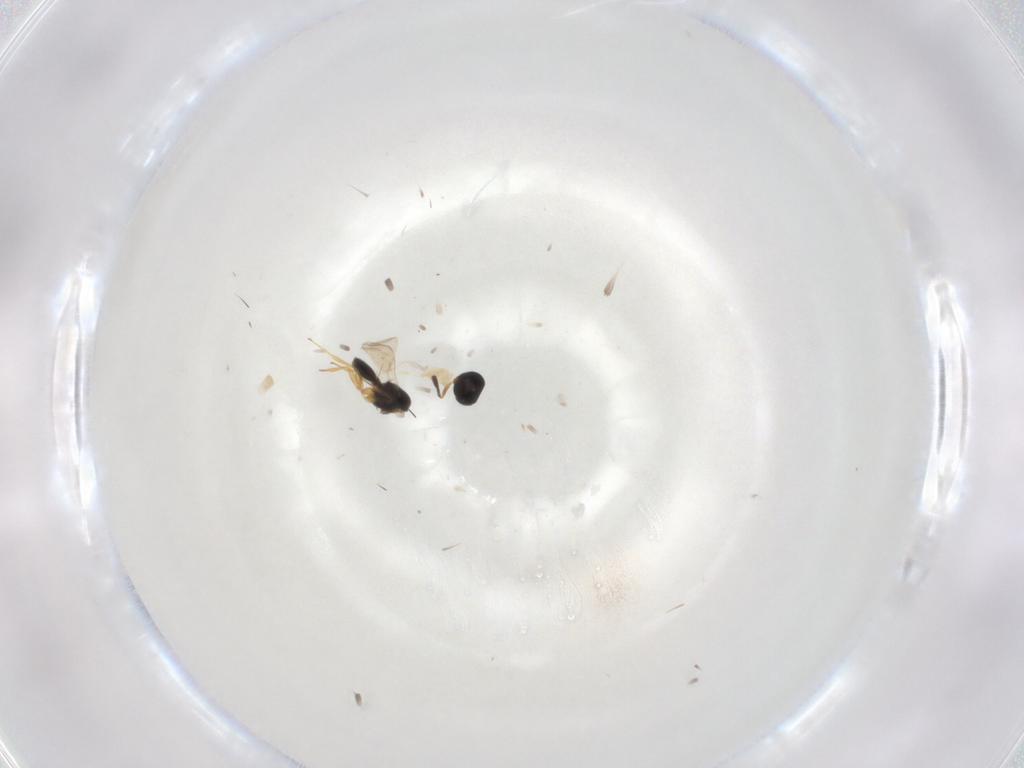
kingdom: Animalia
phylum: Arthropoda
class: Insecta
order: Hymenoptera
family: Scelionidae
